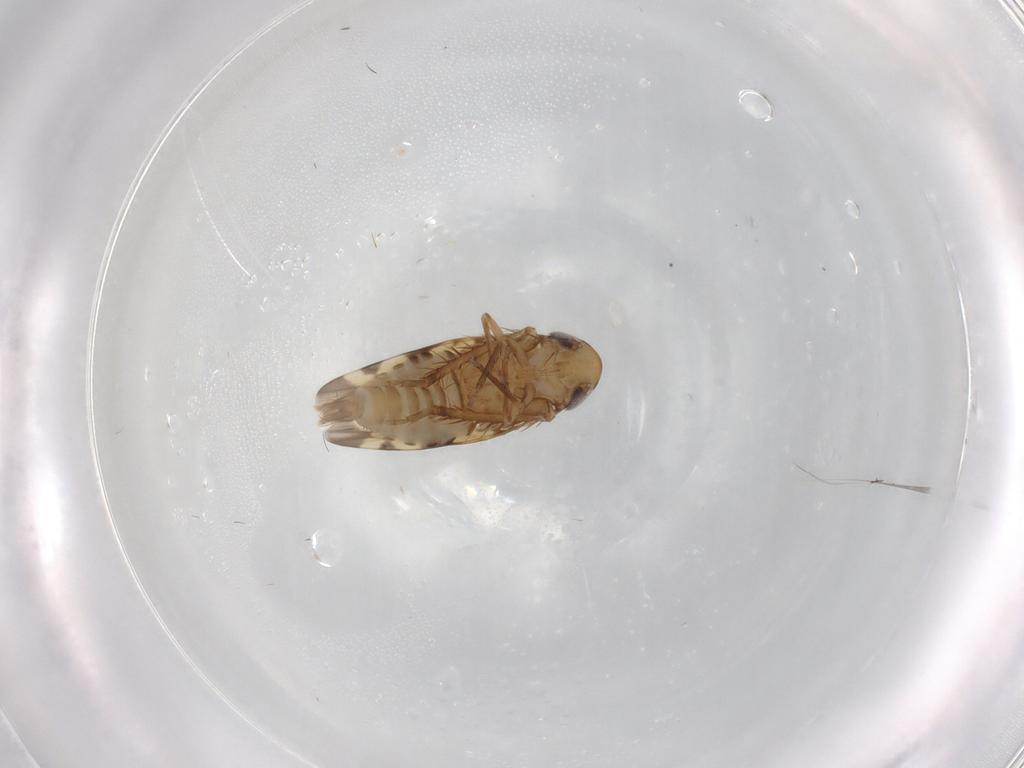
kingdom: Animalia
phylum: Arthropoda
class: Insecta
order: Hemiptera
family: Cicadellidae
